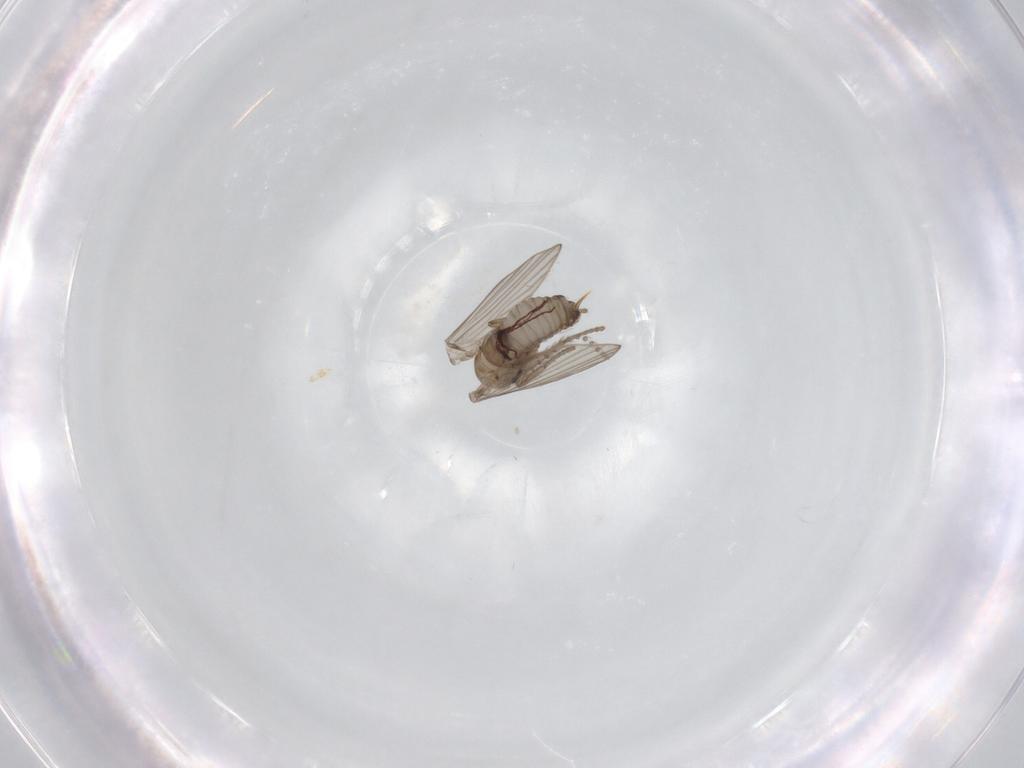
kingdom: Animalia
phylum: Arthropoda
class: Insecta
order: Diptera
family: Psychodidae
